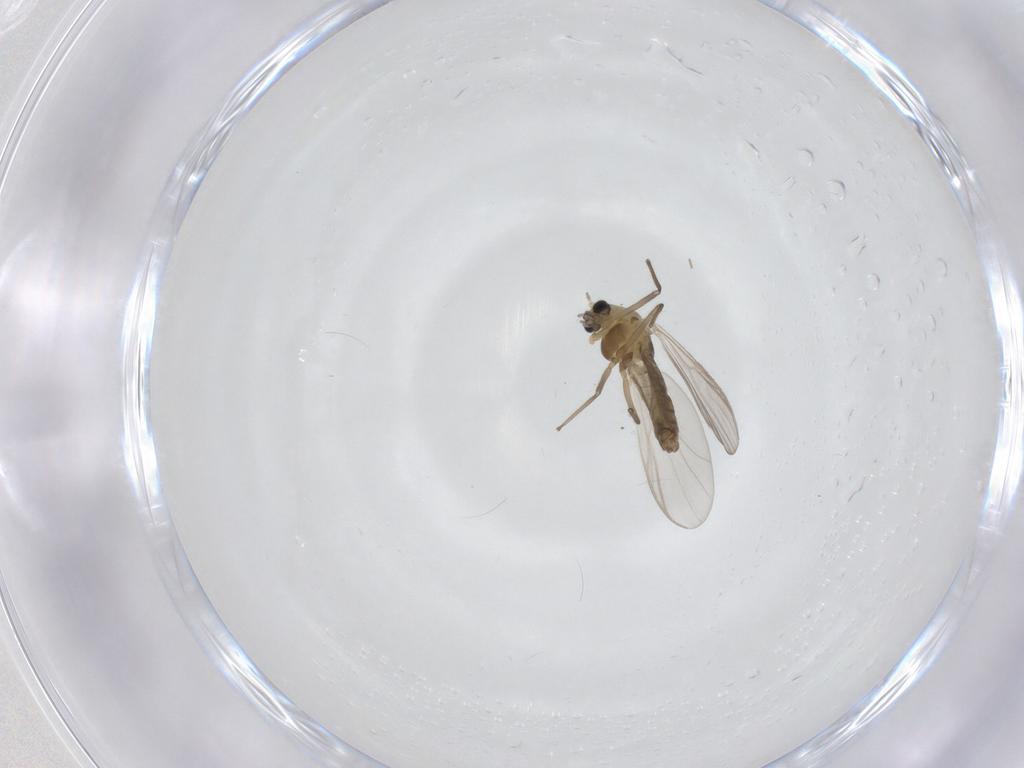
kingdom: Animalia
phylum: Arthropoda
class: Insecta
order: Diptera
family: Chironomidae
